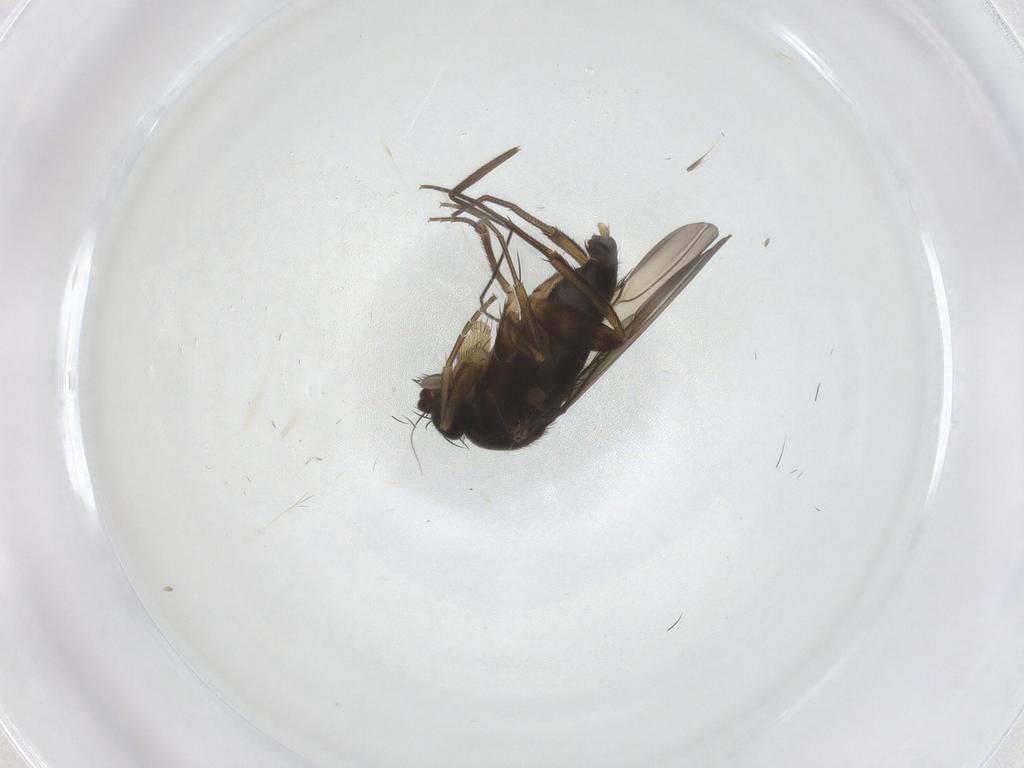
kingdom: Animalia
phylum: Arthropoda
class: Insecta
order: Diptera
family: Phoridae
